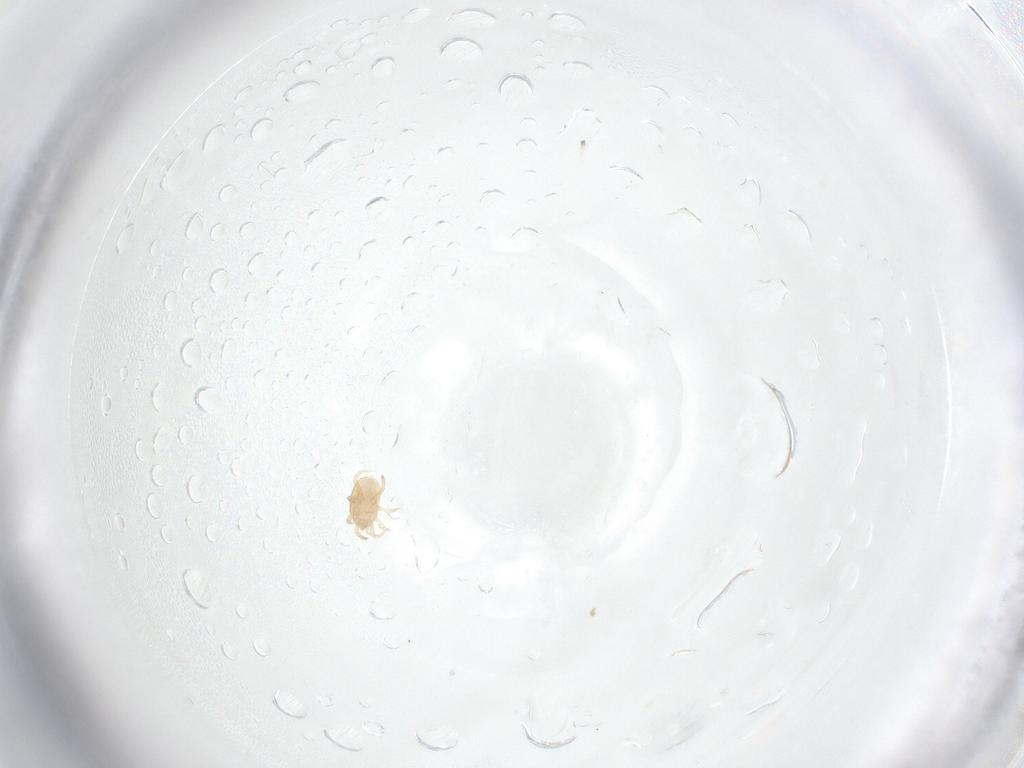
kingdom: Animalia
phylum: Arthropoda
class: Arachnida
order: Mesostigmata
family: Melicharidae
